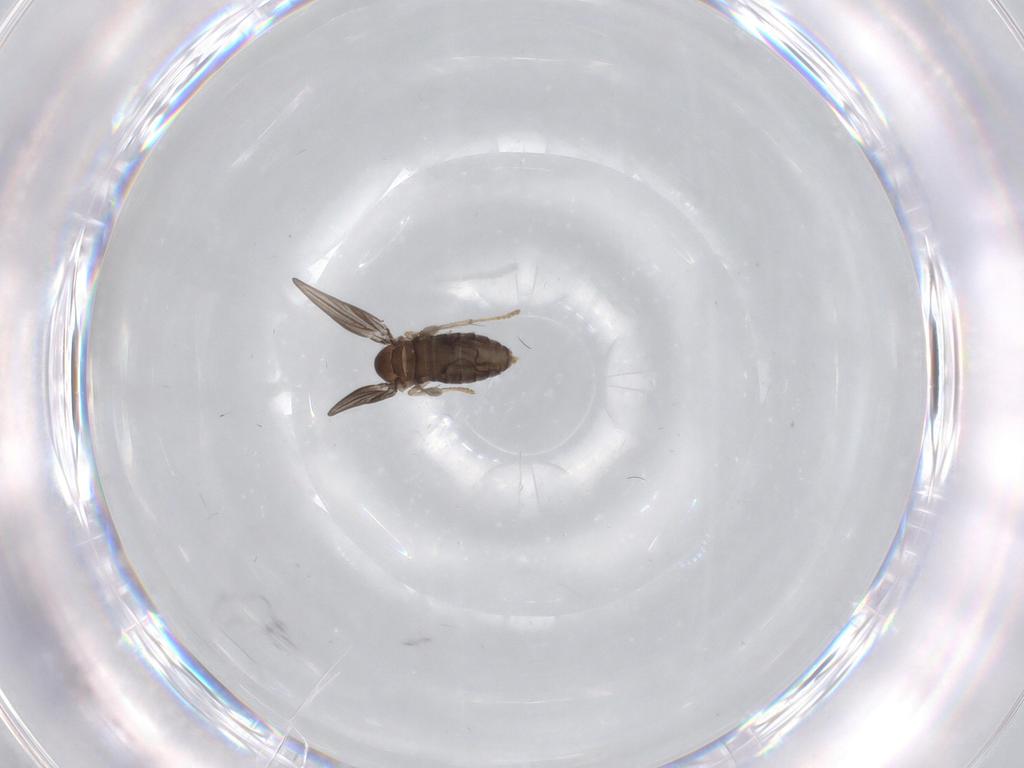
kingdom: Animalia
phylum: Arthropoda
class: Insecta
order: Diptera
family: Psychodidae
